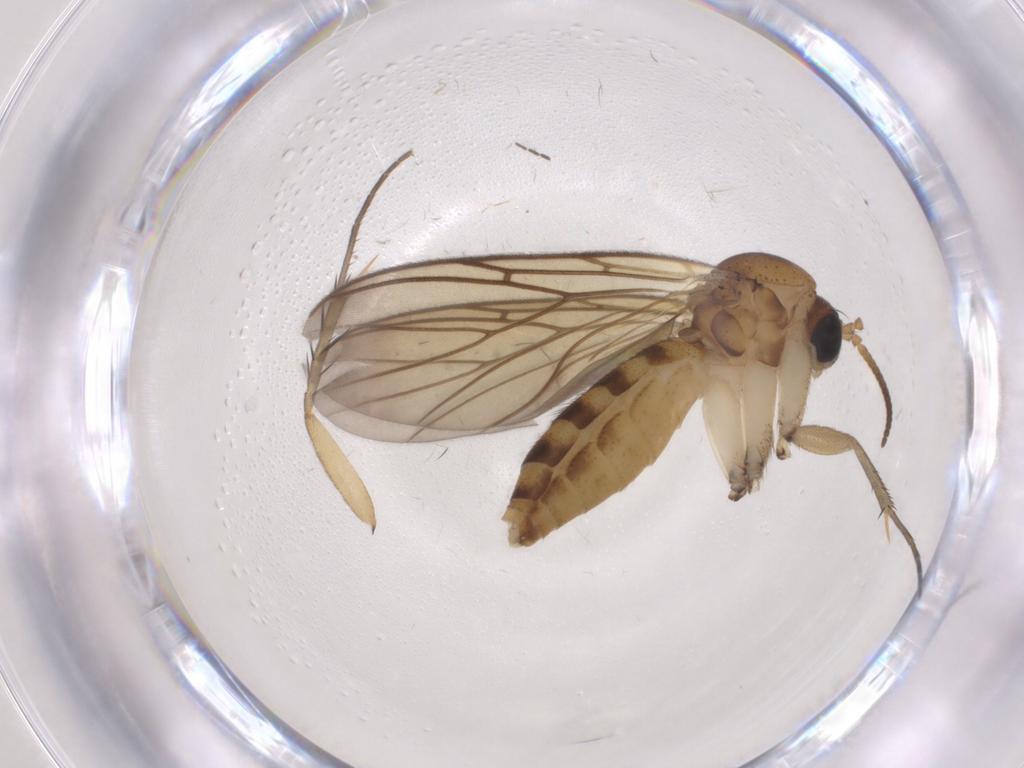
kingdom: Animalia
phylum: Arthropoda
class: Insecta
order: Diptera
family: Mycetophilidae
